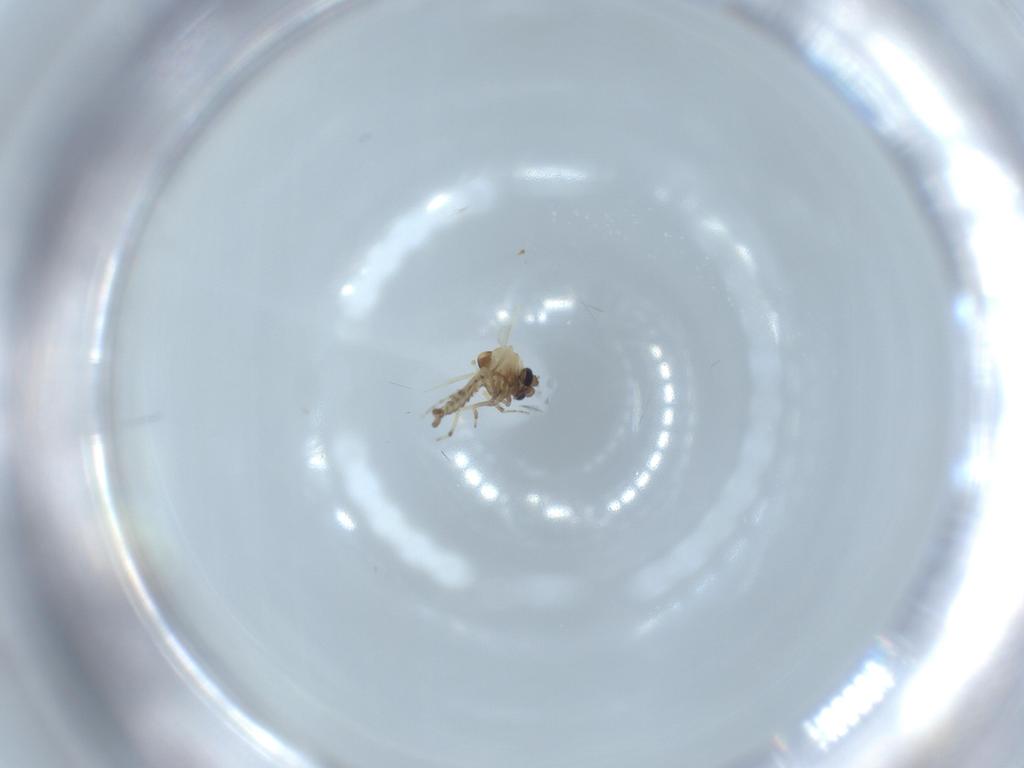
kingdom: Animalia
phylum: Arthropoda
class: Insecta
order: Diptera
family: Ceratopogonidae
